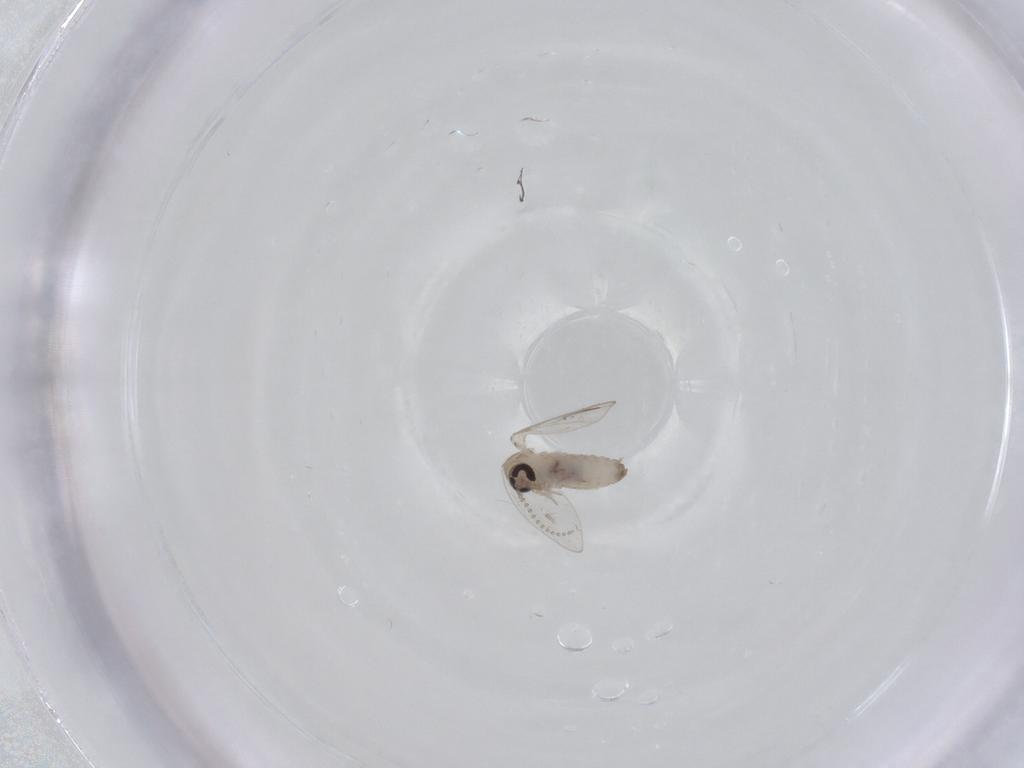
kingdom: Animalia
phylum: Arthropoda
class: Insecta
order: Diptera
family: Psychodidae
